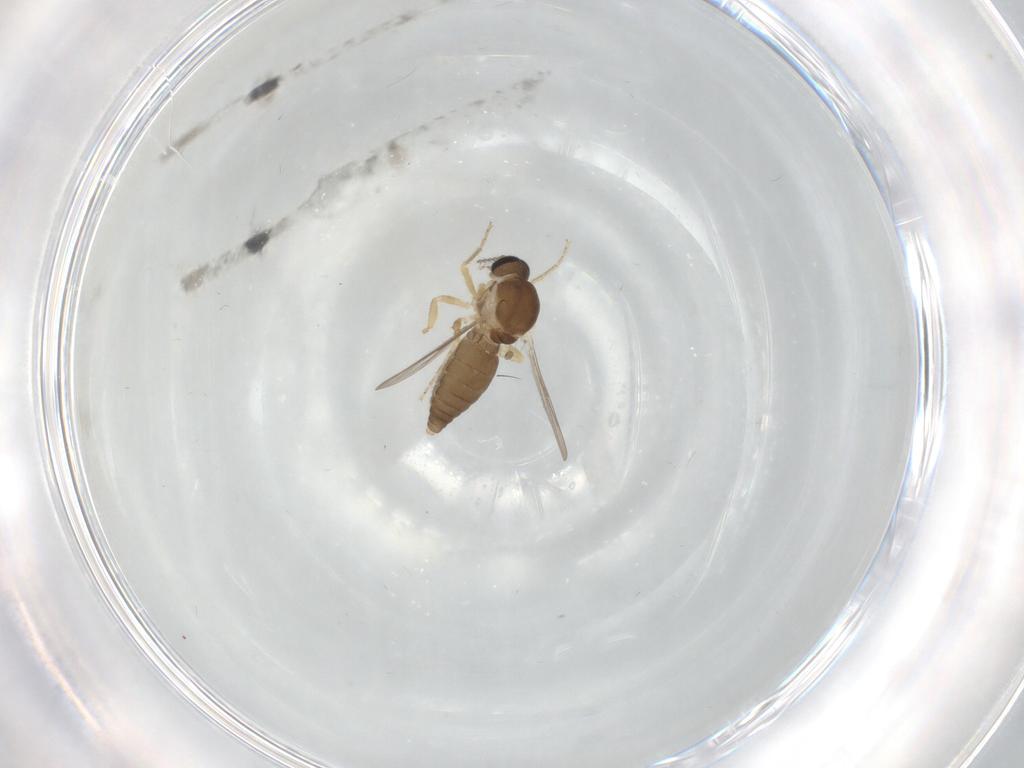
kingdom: Animalia
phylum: Arthropoda
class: Insecta
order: Diptera
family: Ceratopogonidae
